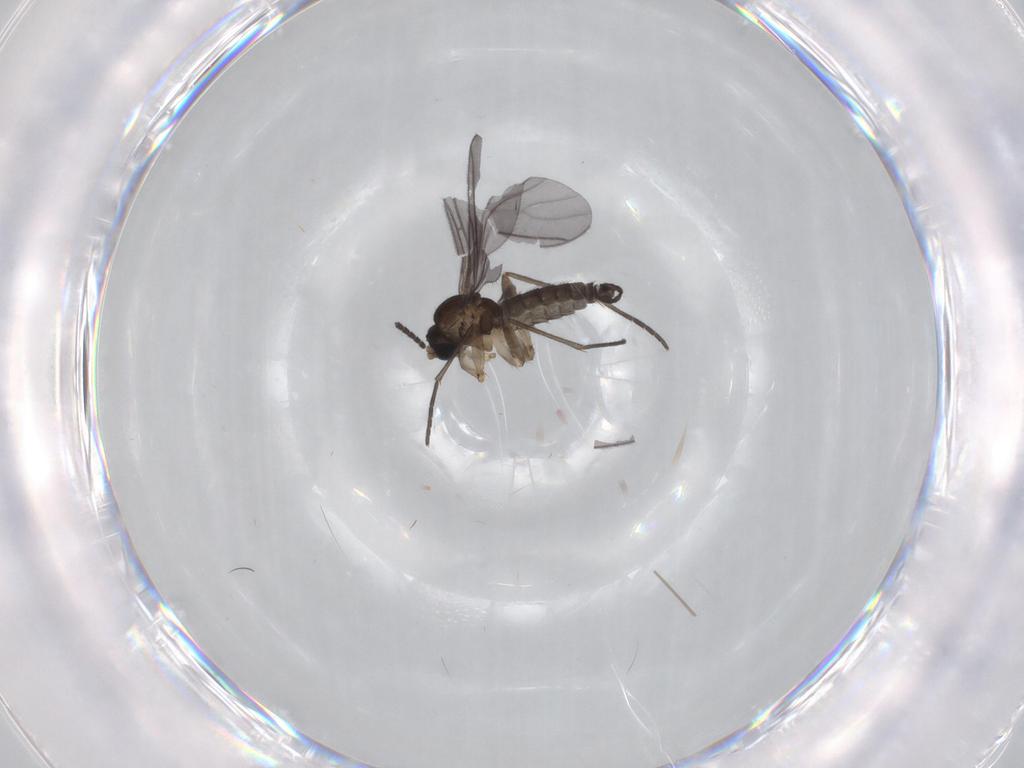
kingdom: Animalia
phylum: Arthropoda
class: Insecta
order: Diptera
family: Sciaridae
